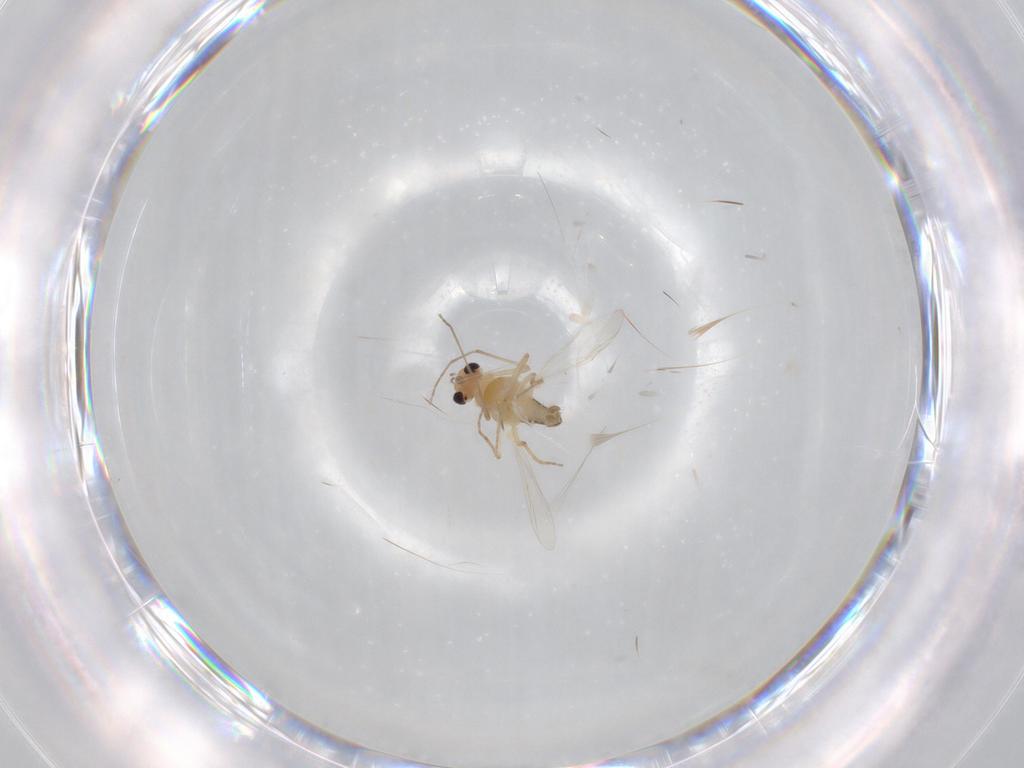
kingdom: Animalia
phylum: Arthropoda
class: Insecta
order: Diptera
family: Chironomidae
